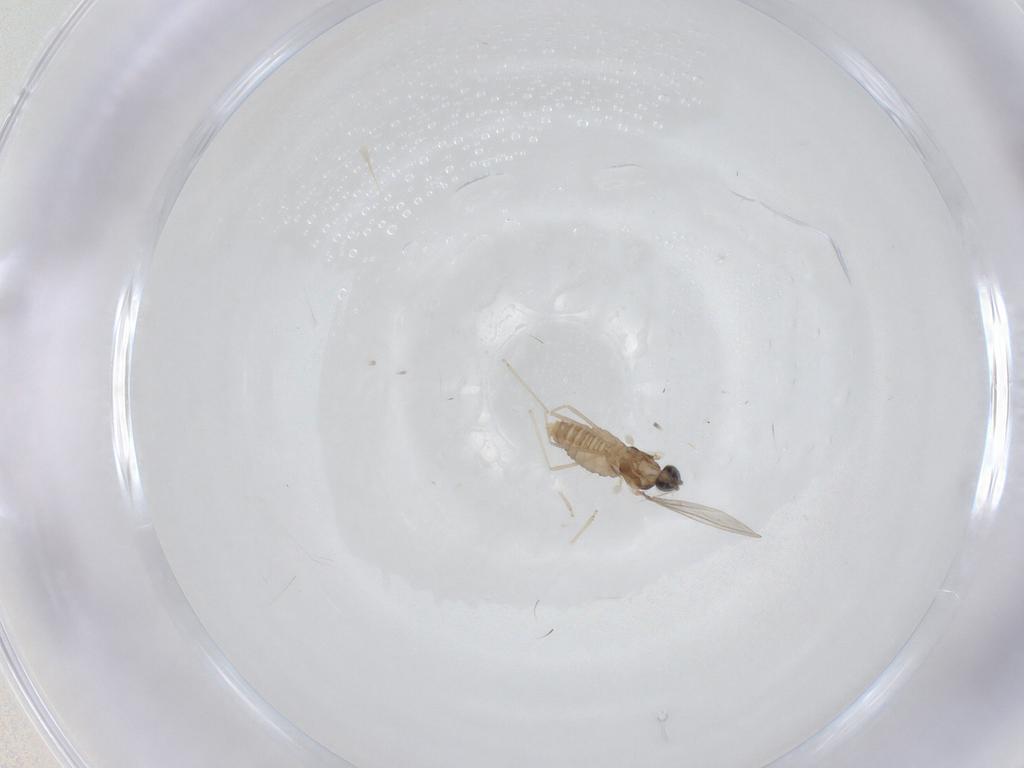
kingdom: Animalia
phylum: Arthropoda
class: Insecta
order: Diptera
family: Cecidomyiidae
